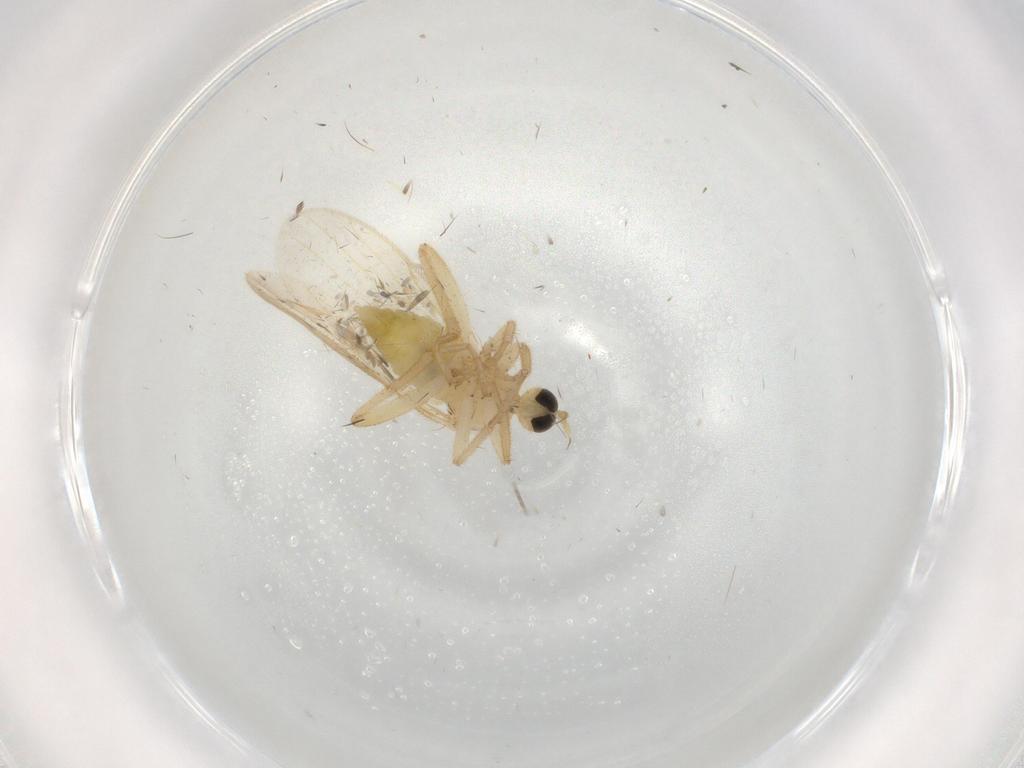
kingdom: Animalia
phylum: Arthropoda
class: Insecta
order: Diptera
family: Hybotidae
